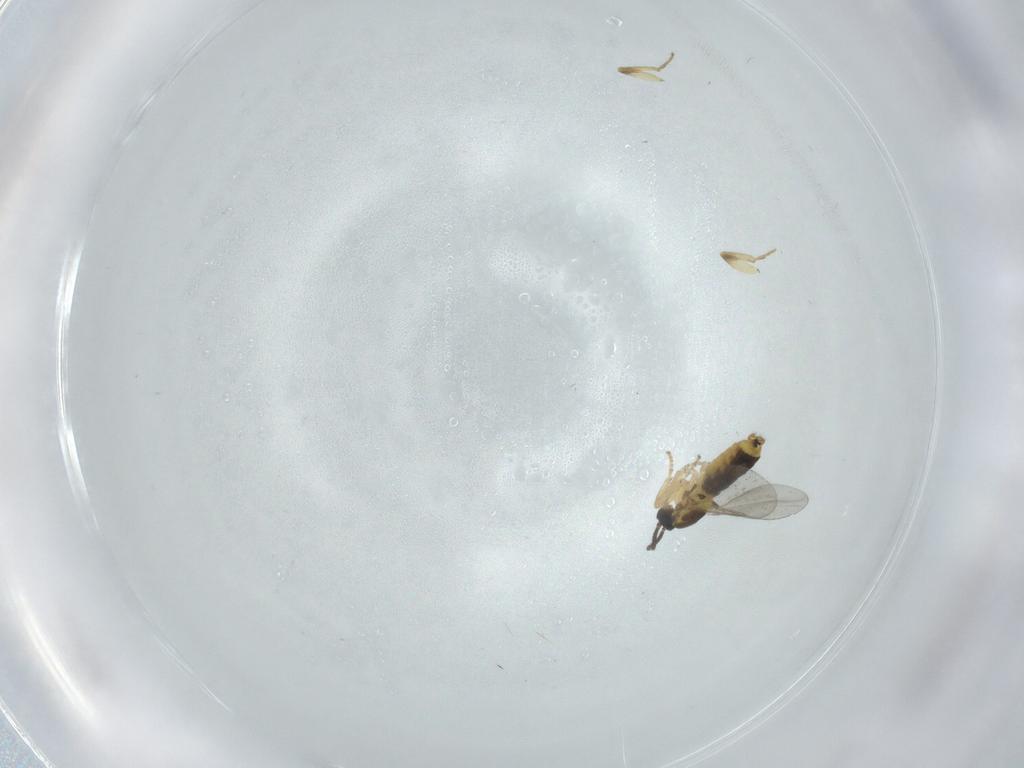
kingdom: Animalia
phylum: Arthropoda
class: Insecta
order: Diptera
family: Scatopsidae
